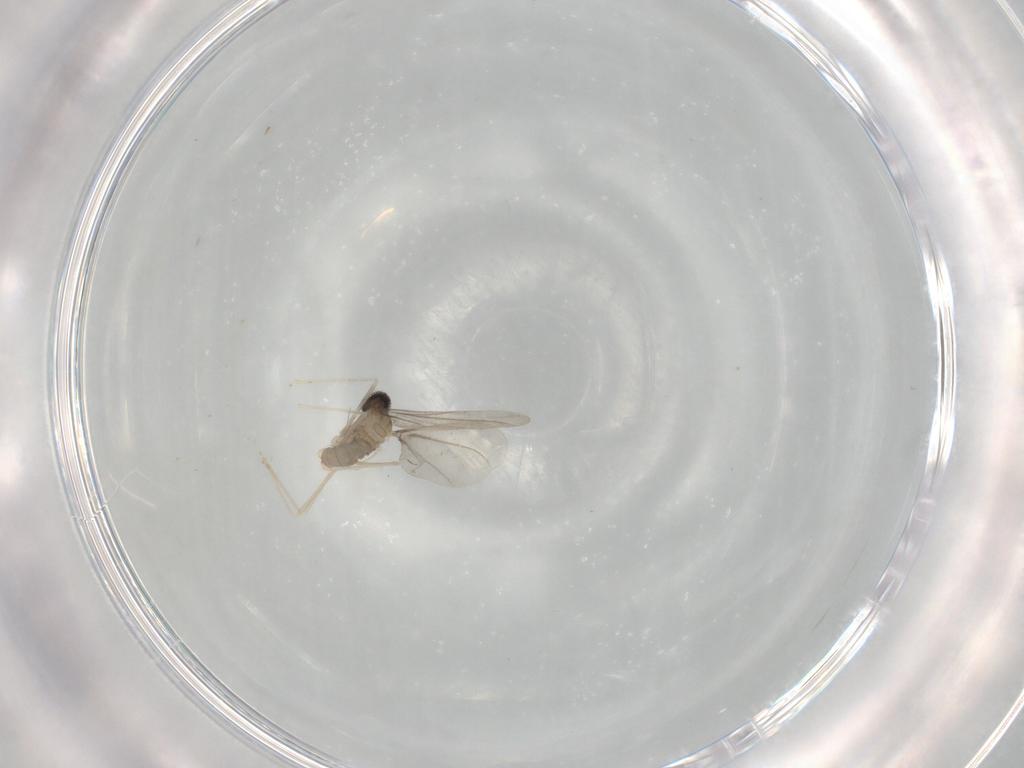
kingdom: Animalia
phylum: Arthropoda
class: Insecta
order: Diptera
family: Cecidomyiidae
